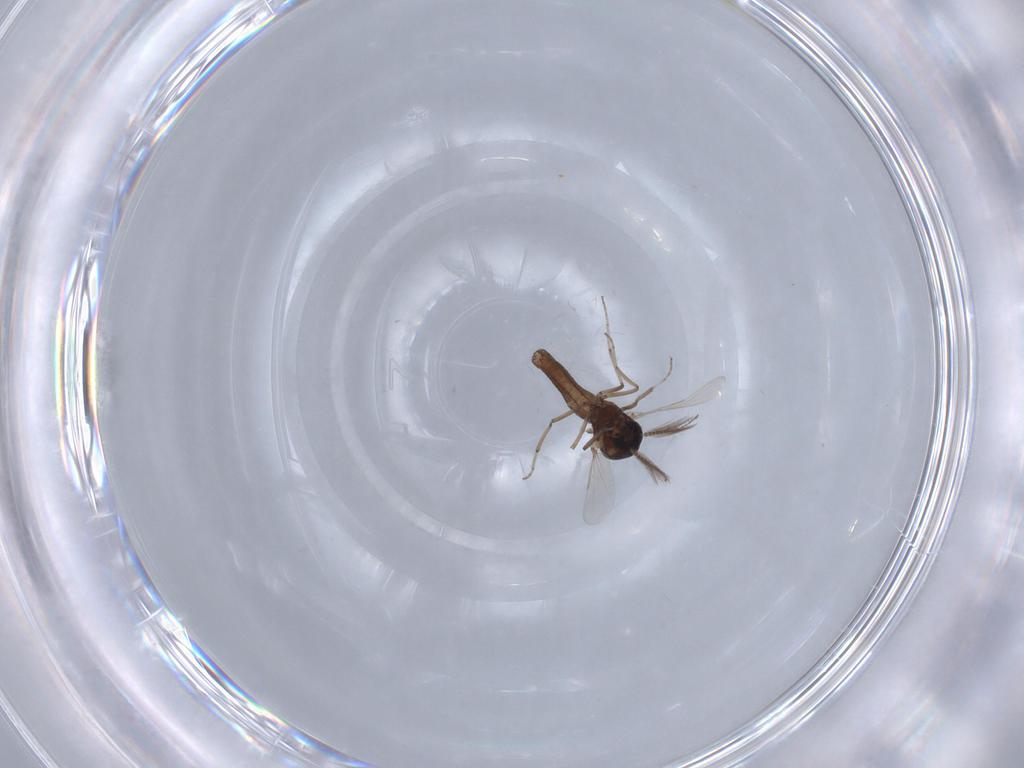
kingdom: Animalia
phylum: Arthropoda
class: Insecta
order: Diptera
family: Ceratopogonidae
